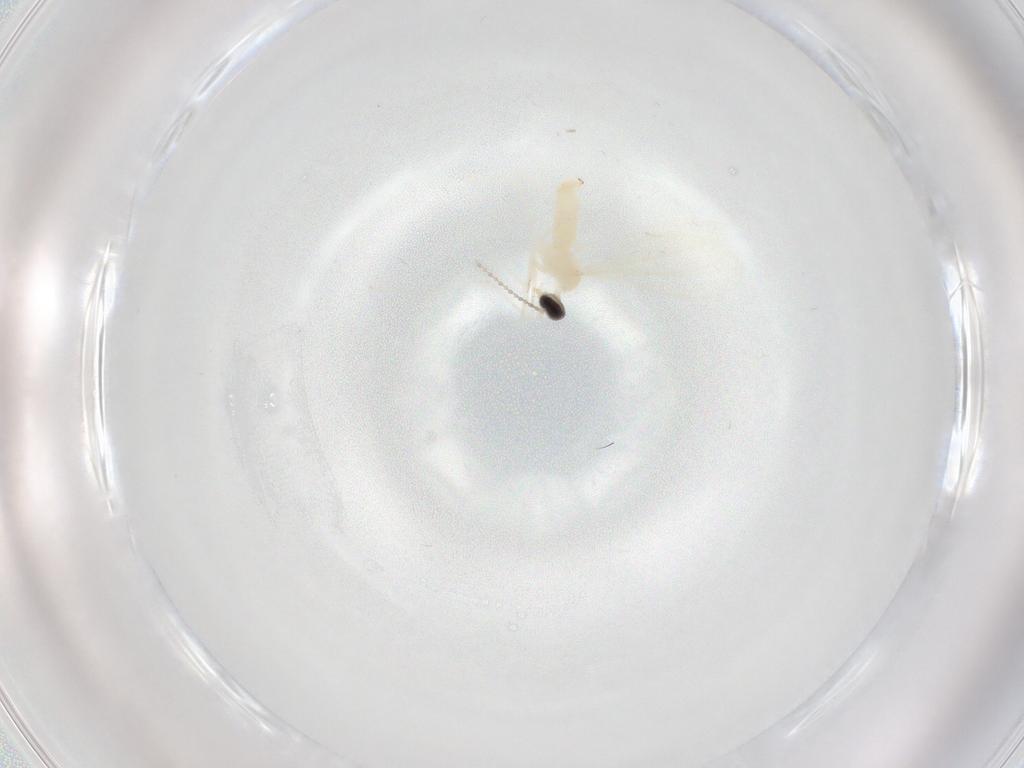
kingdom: Animalia
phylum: Arthropoda
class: Insecta
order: Diptera
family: Cecidomyiidae
